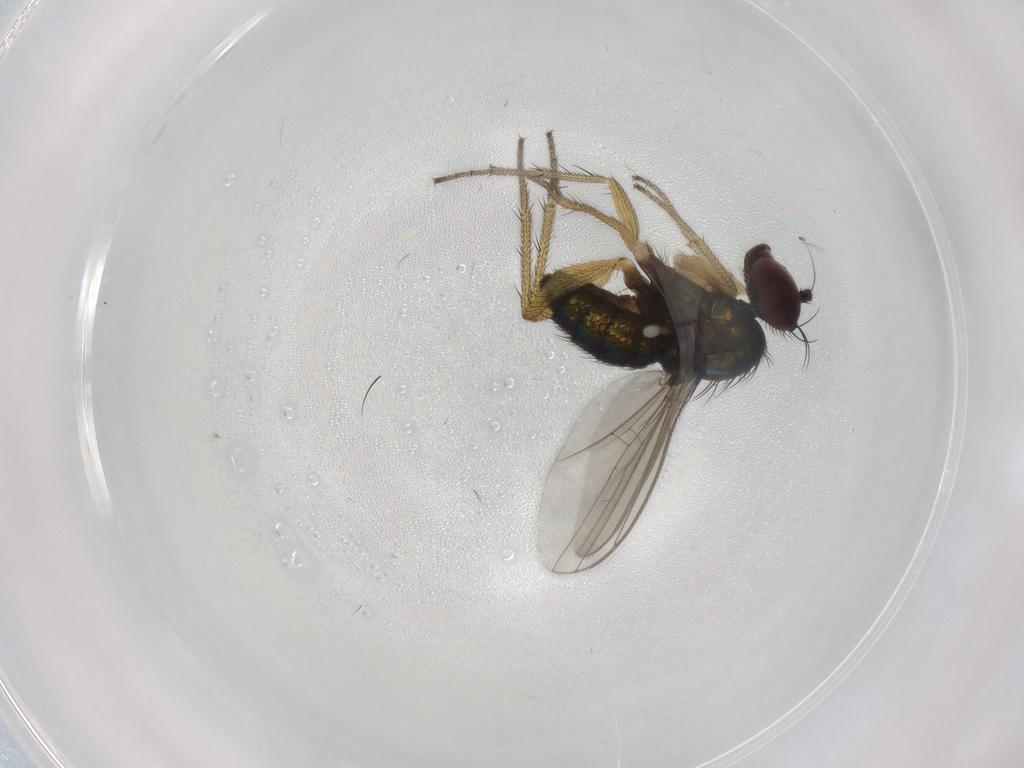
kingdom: Animalia
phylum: Arthropoda
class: Insecta
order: Diptera
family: Dolichopodidae
